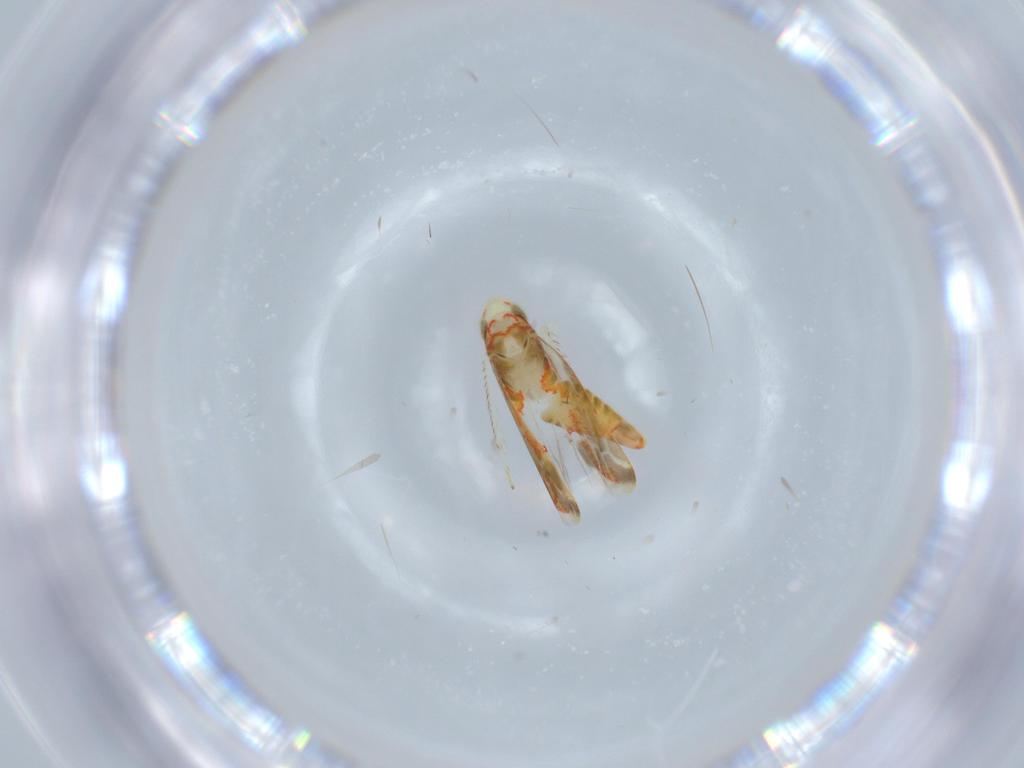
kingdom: Animalia
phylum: Arthropoda
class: Insecta
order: Hemiptera
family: Cicadellidae
